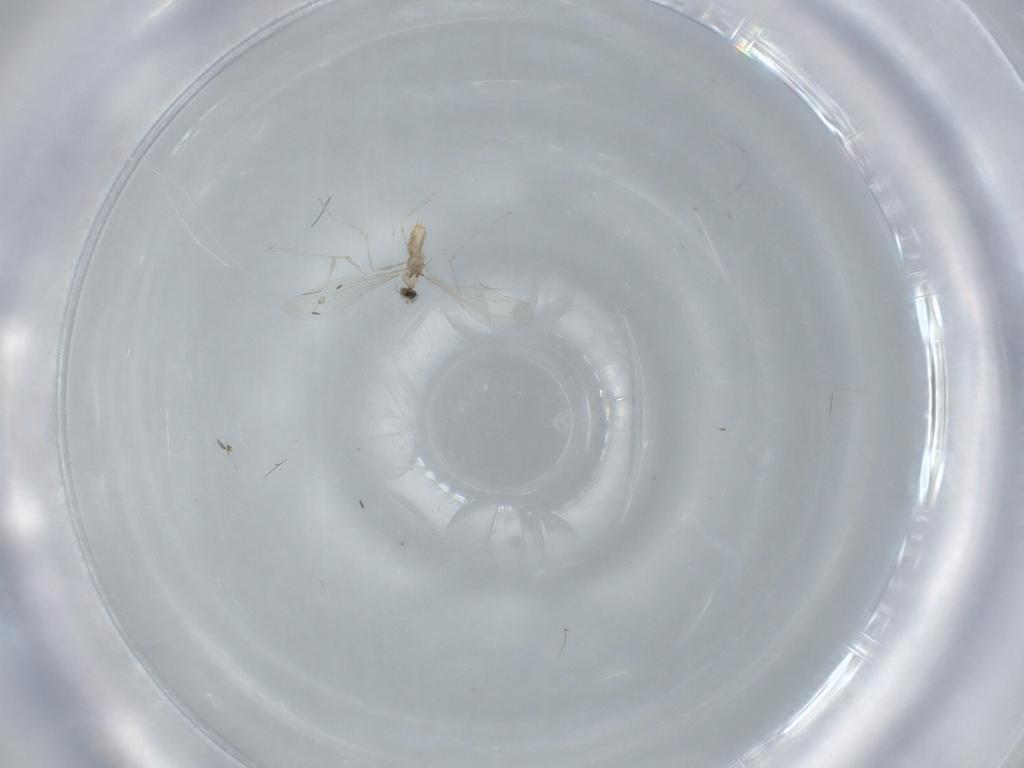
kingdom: Animalia
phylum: Arthropoda
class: Insecta
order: Diptera
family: Cecidomyiidae
